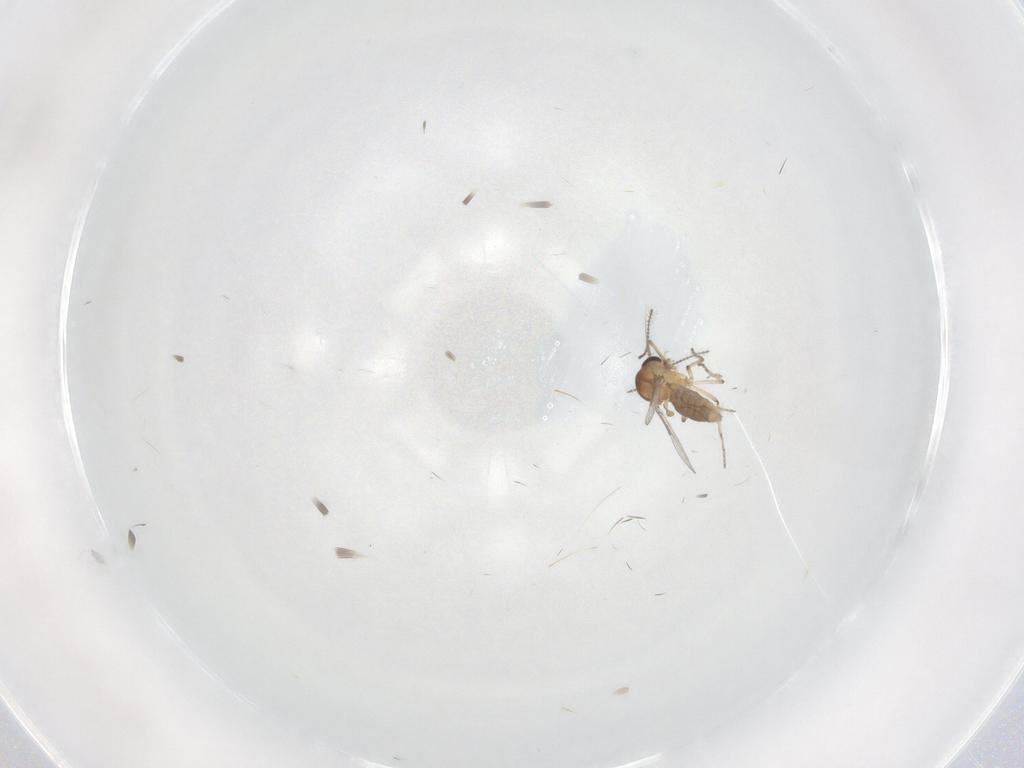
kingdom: Animalia
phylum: Arthropoda
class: Insecta
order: Diptera
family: Ceratopogonidae
